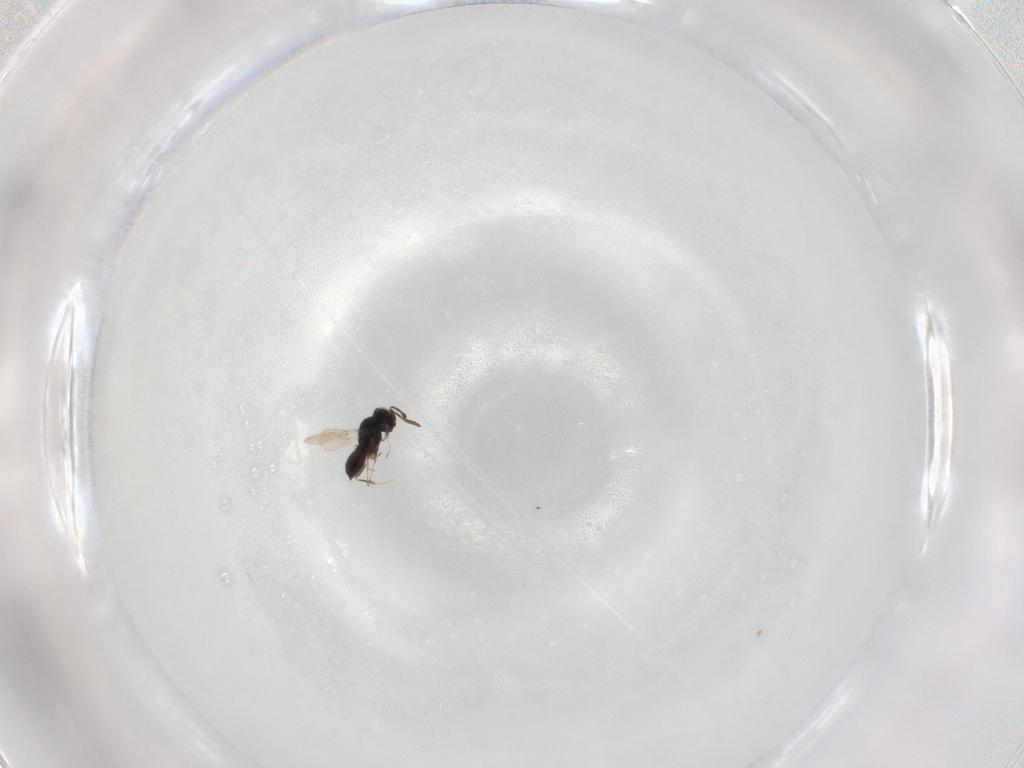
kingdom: Animalia
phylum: Arthropoda
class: Insecta
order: Hymenoptera
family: Scelionidae
